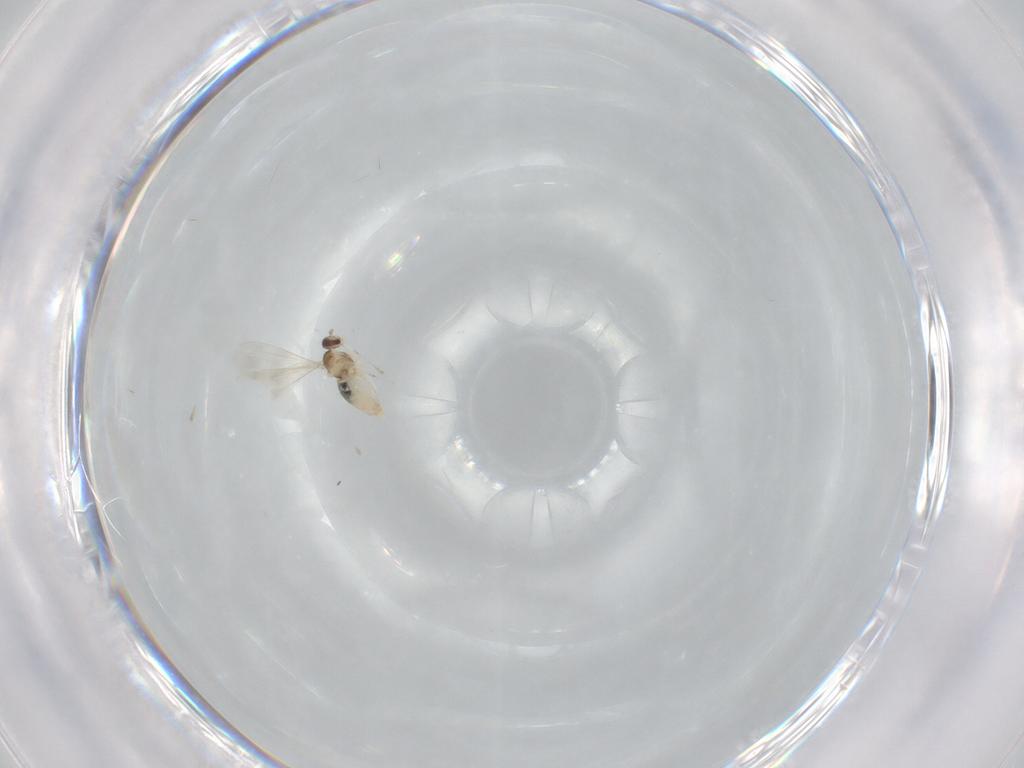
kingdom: Animalia
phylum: Arthropoda
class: Insecta
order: Diptera
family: Cecidomyiidae
